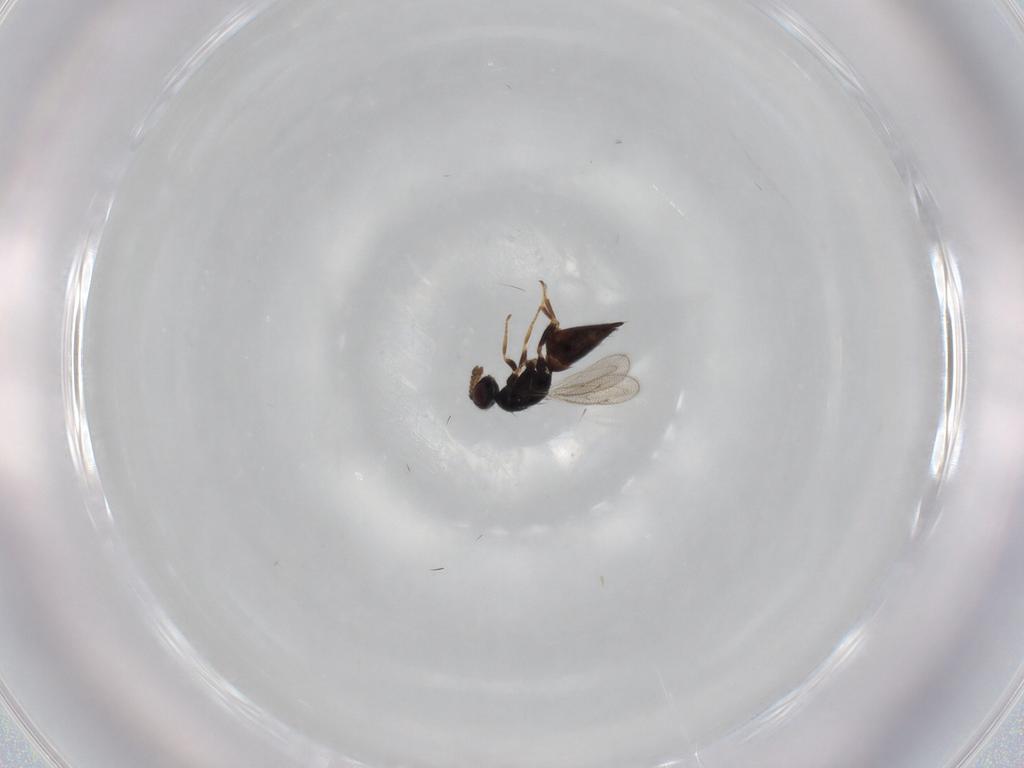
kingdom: Animalia
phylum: Arthropoda
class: Insecta
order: Hymenoptera
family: Eulophidae
